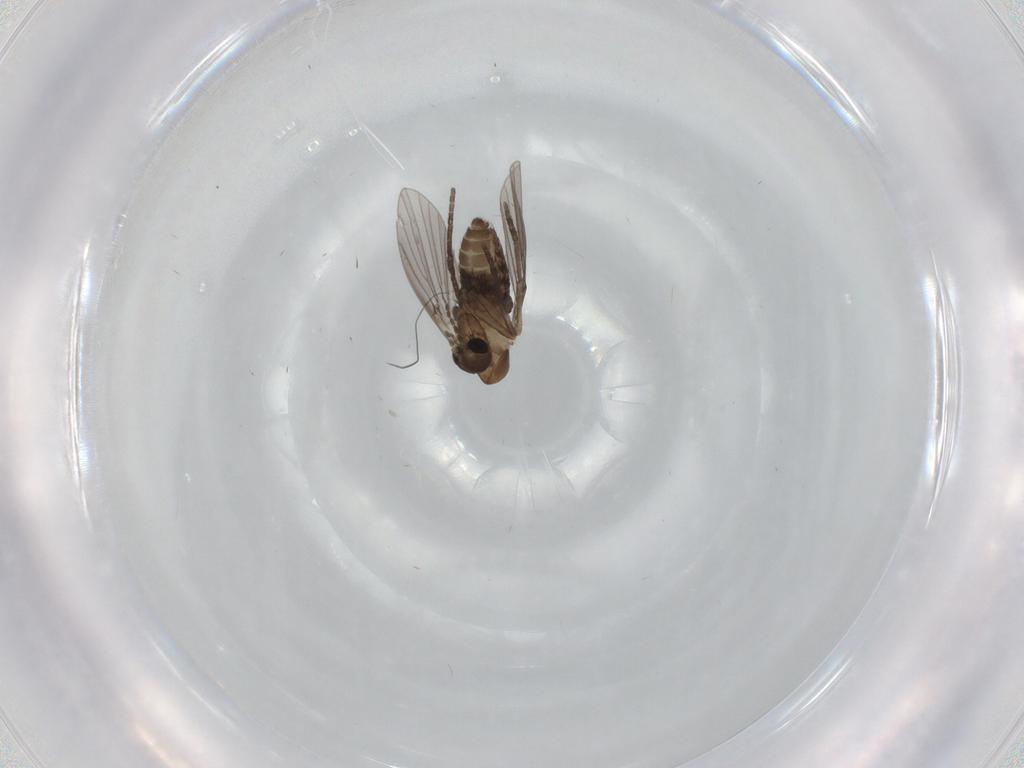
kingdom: Animalia
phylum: Arthropoda
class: Insecta
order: Diptera
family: Psychodidae
